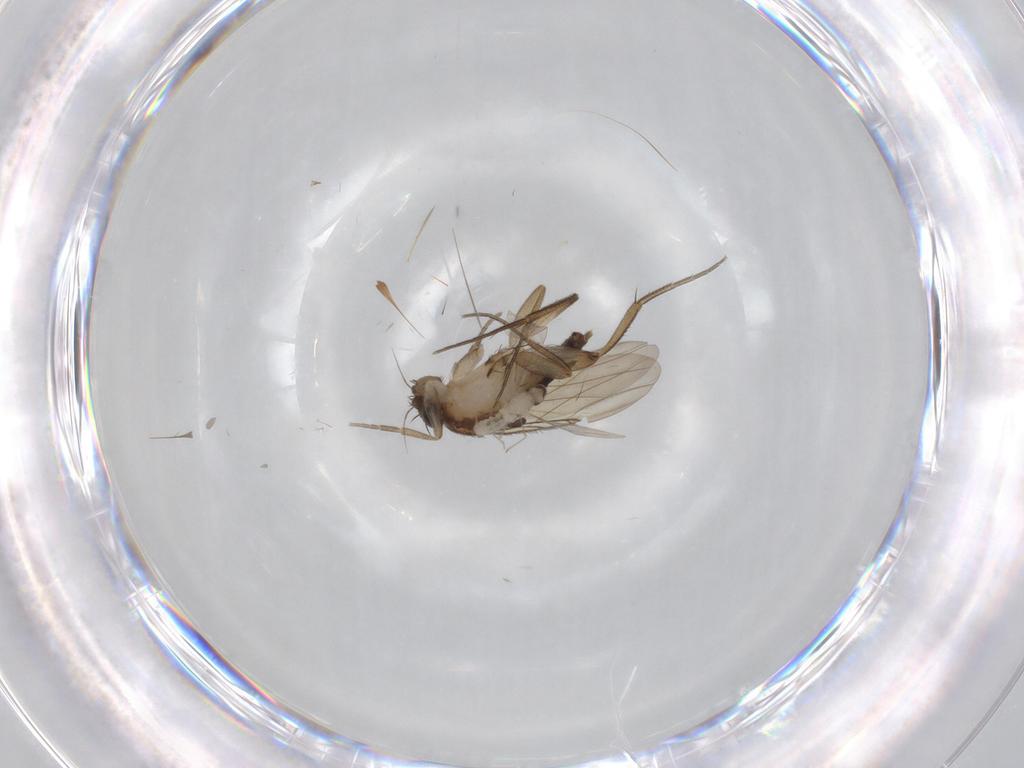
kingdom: Animalia
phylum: Arthropoda
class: Insecta
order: Diptera
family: Phoridae
